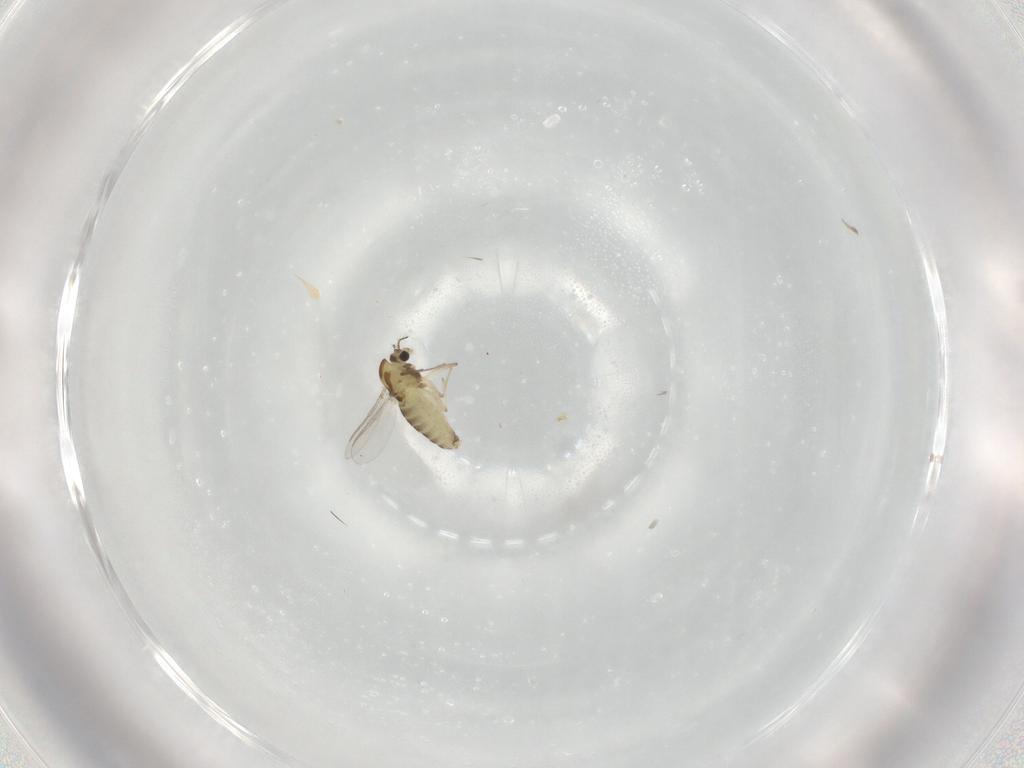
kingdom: Animalia
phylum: Arthropoda
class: Insecta
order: Diptera
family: Chironomidae
